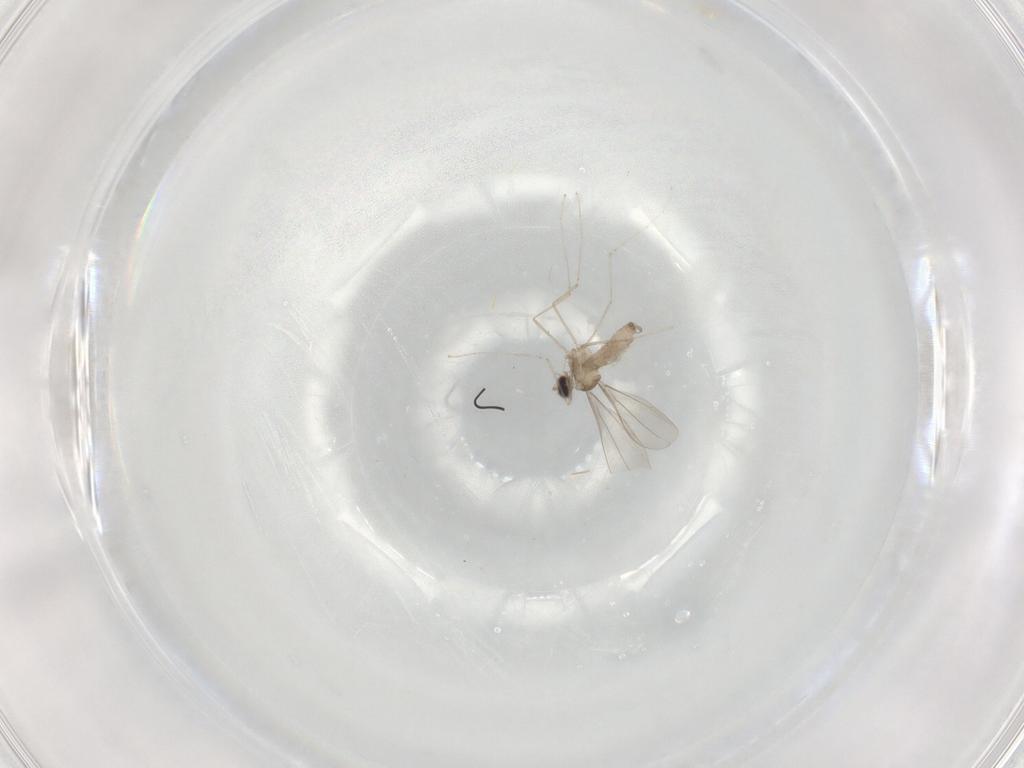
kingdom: Animalia
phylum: Arthropoda
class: Insecta
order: Diptera
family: Cecidomyiidae
